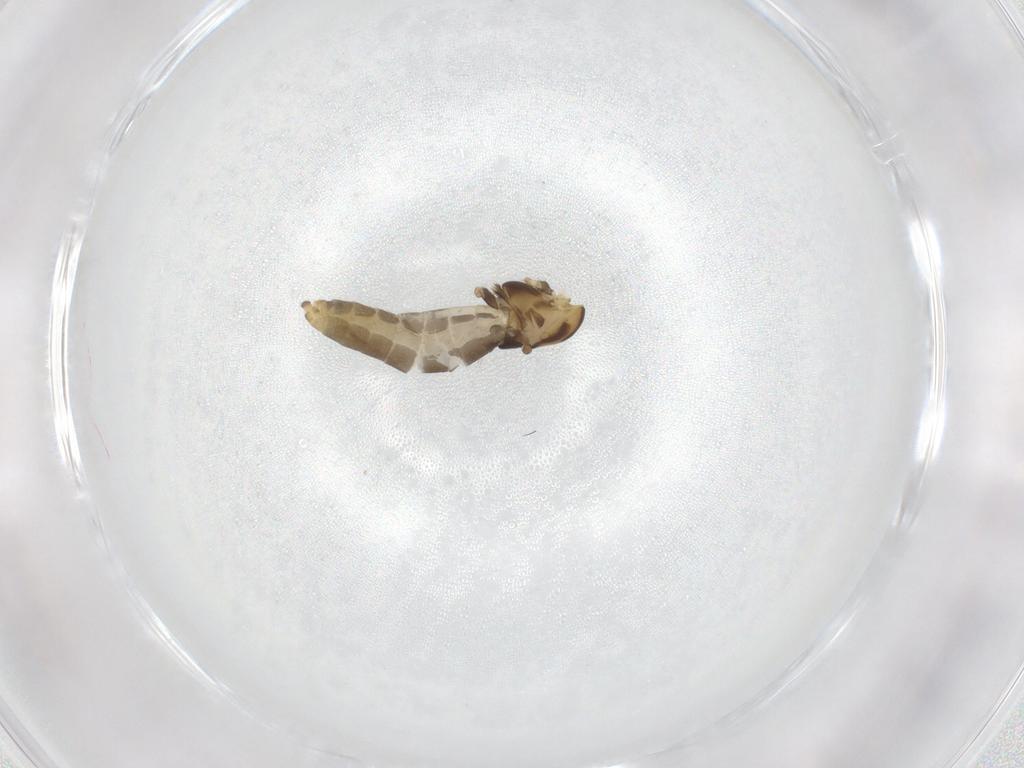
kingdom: Animalia
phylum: Arthropoda
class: Insecta
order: Diptera
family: Chironomidae
